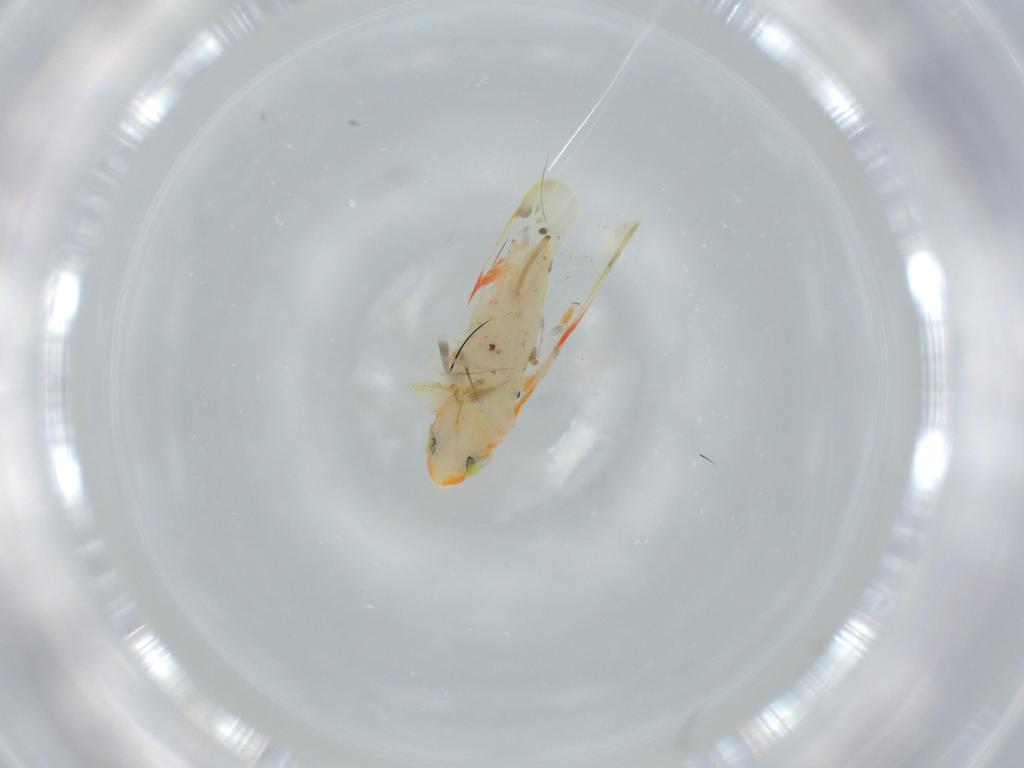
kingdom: Animalia
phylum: Arthropoda
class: Insecta
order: Hemiptera
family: Cicadellidae
